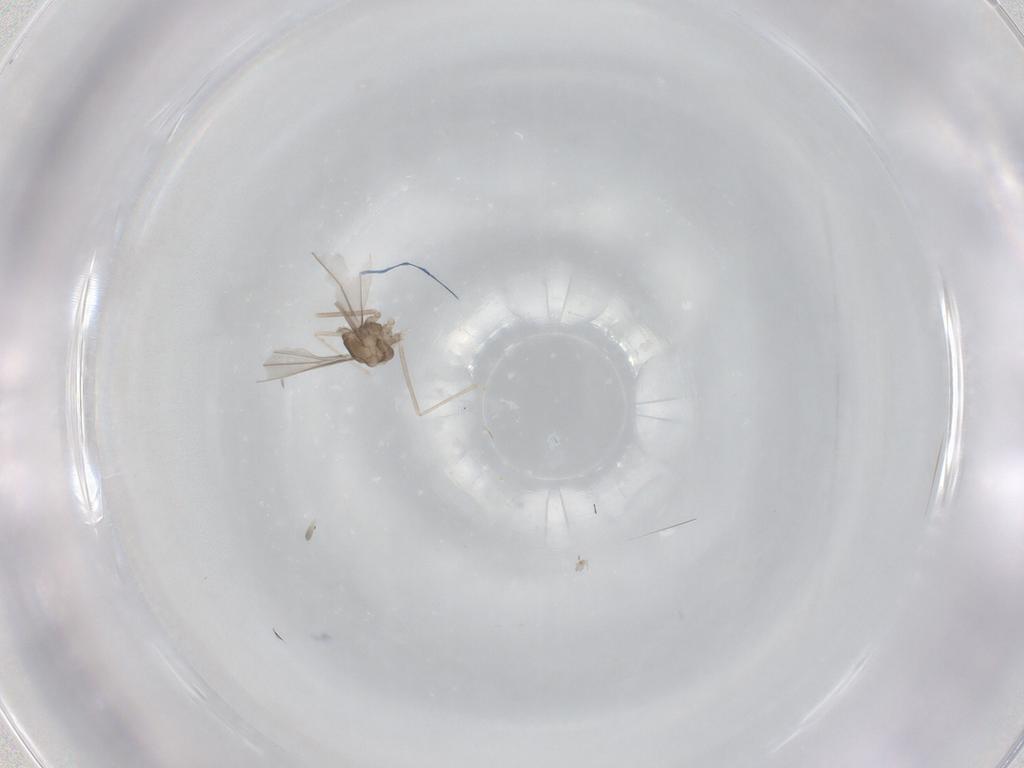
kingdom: Animalia
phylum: Arthropoda
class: Insecta
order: Diptera
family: Cecidomyiidae
